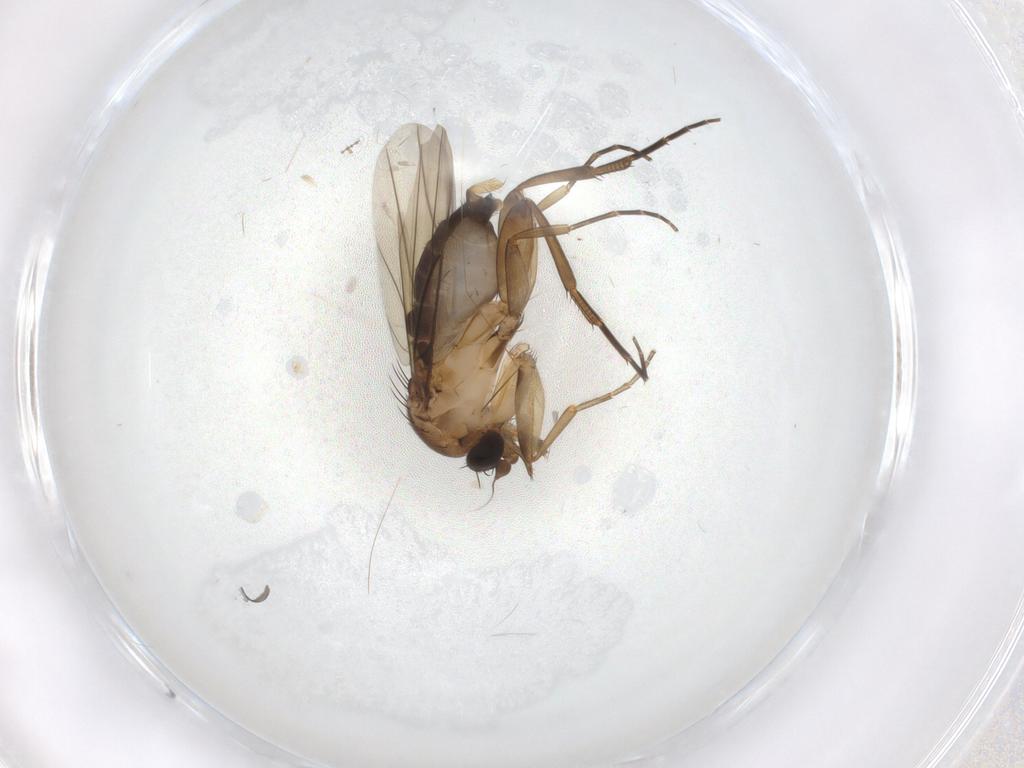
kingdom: Animalia
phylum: Arthropoda
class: Insecta
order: Diptera
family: Phoridae
